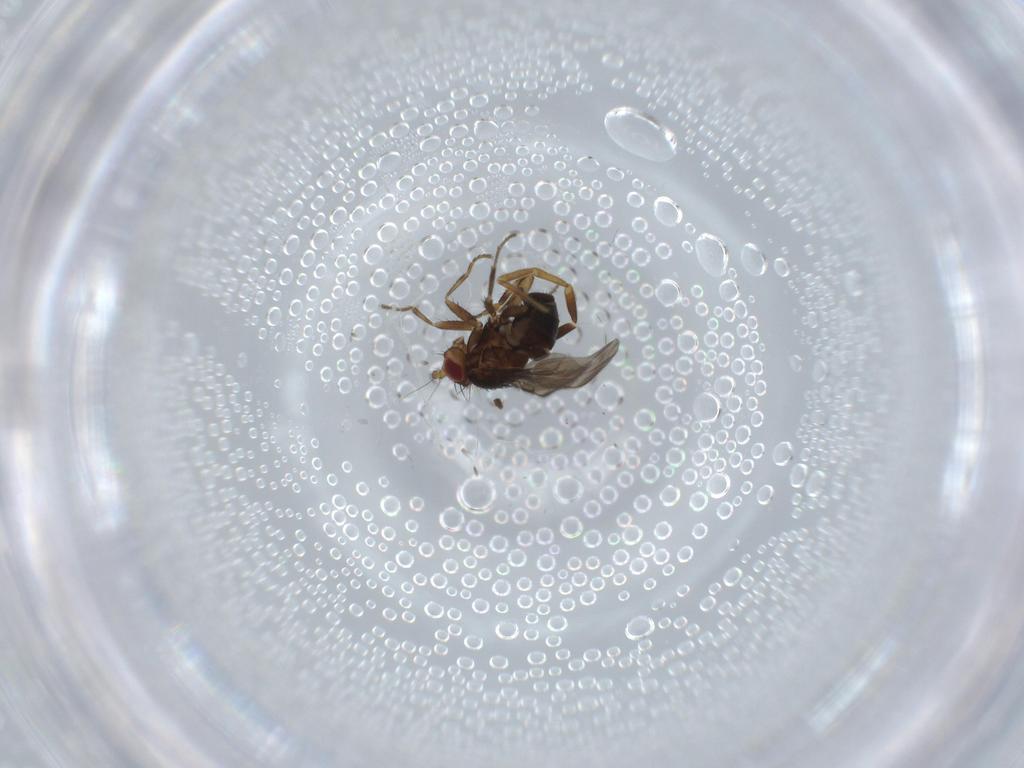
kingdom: Animalia
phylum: Arthropoda
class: Insecta
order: Diptera
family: Sphaeroceridae
